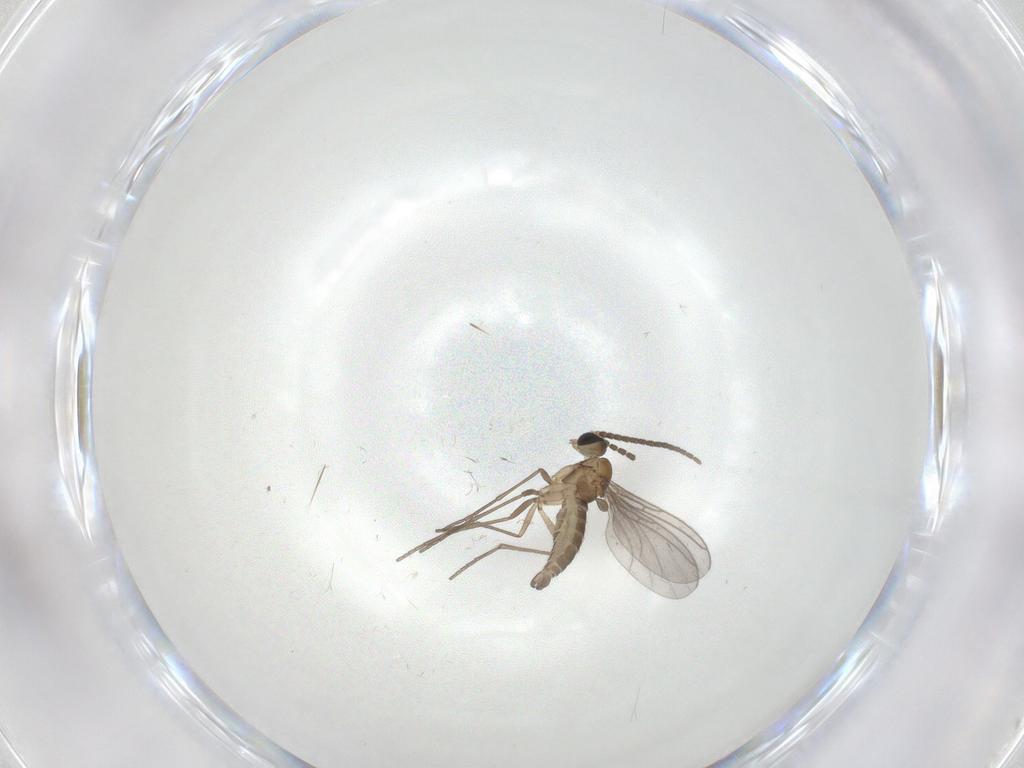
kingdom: Animalia
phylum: Arthropoda
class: Insecta
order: Diptera
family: Sciaridae
